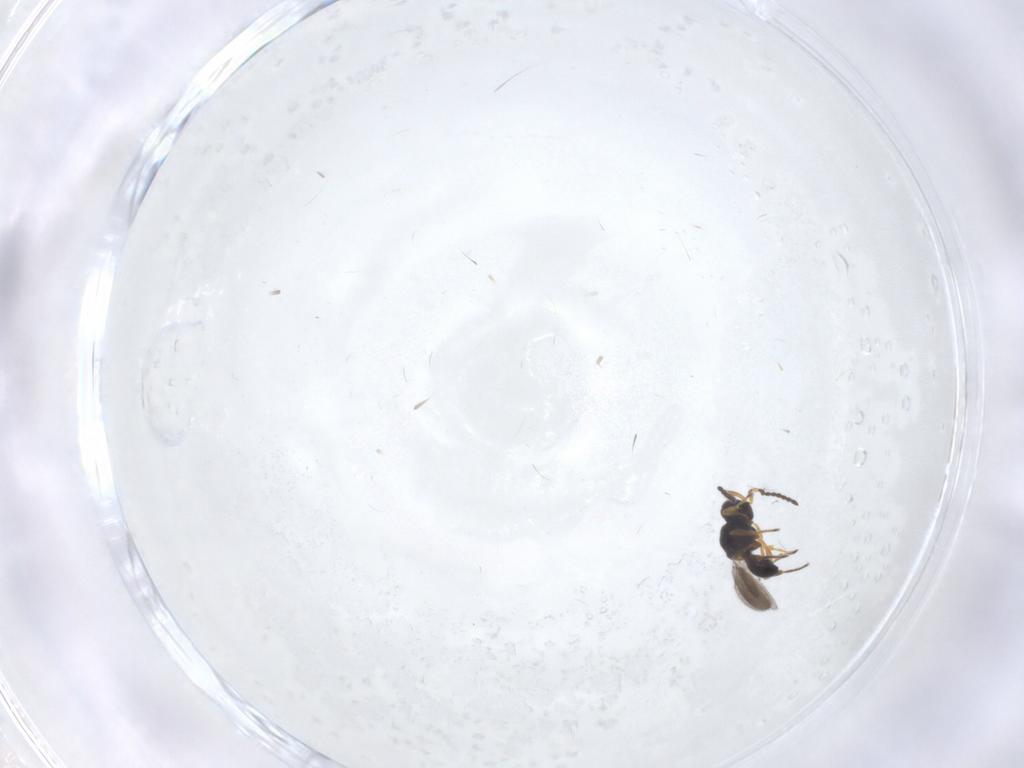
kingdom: Animalia
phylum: Arthropoda
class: Insecta
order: Hymenoptera
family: Platygastridae
